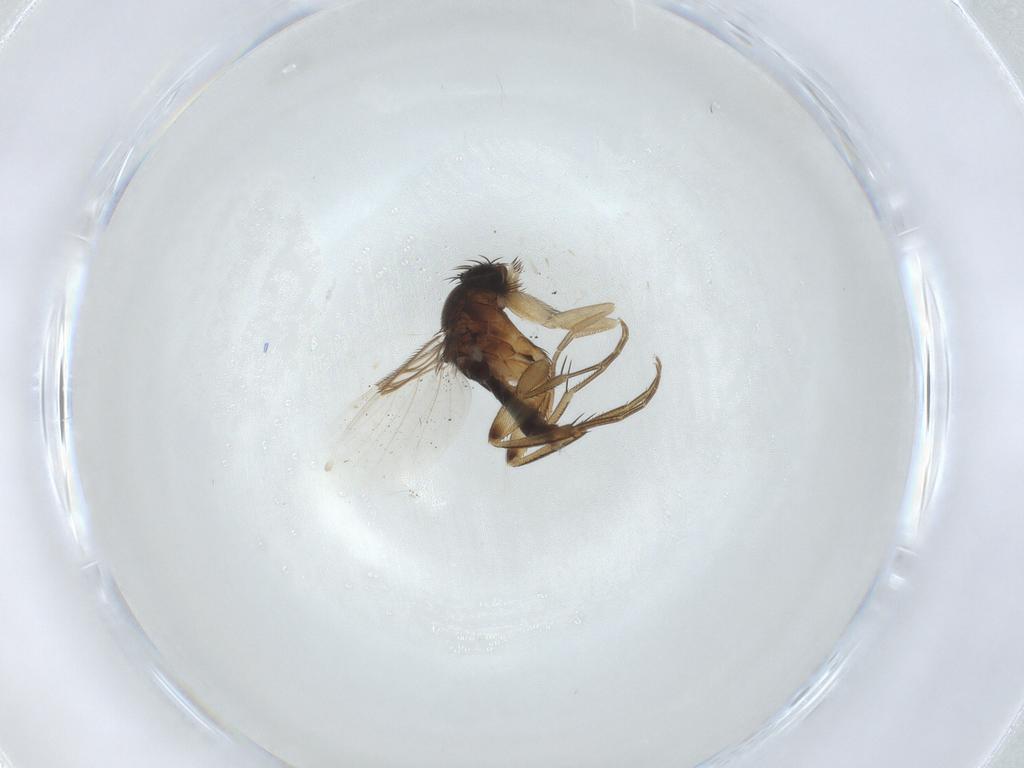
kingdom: Animalia
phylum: Arthropoda
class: Insecta
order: Diptera
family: Phoridae
